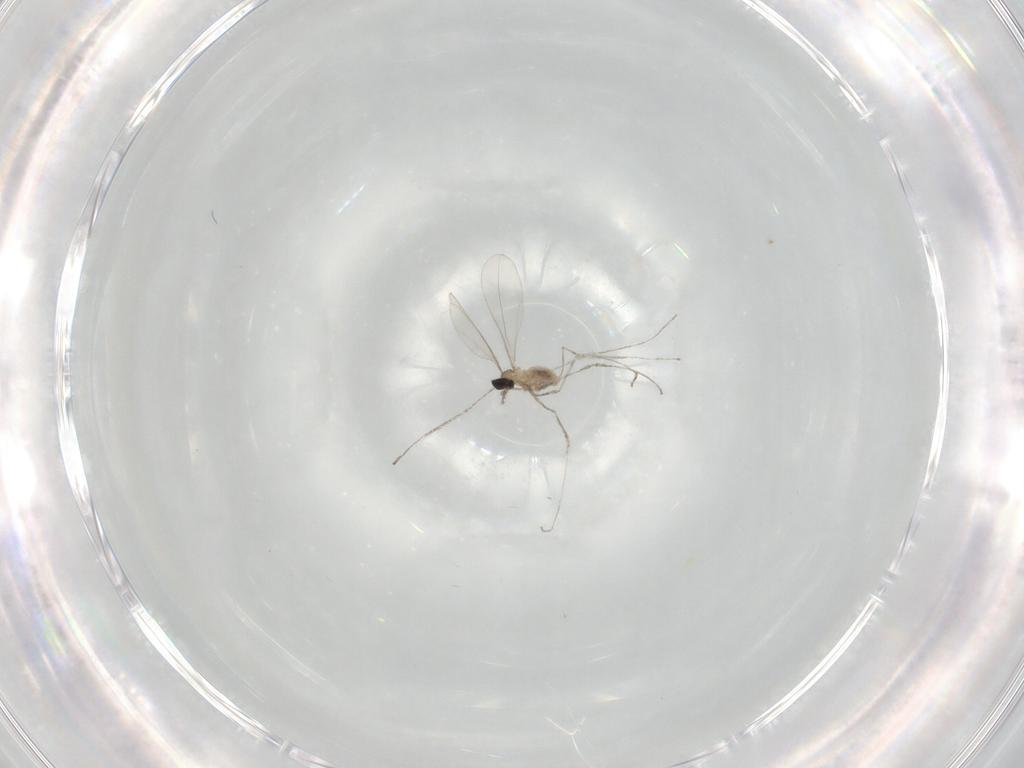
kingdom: Animalia
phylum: Arthropoda
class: Insecta
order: Diptera
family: Cecidomyiidae
